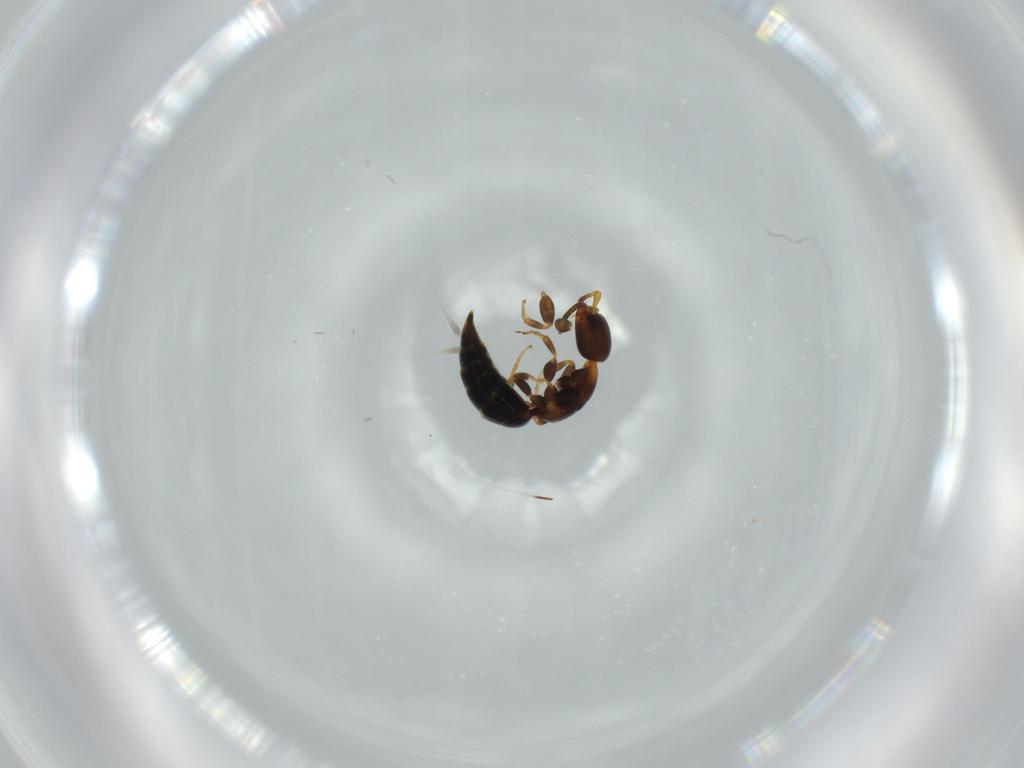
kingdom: Animalia
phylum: Arthropoda
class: Insecta
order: Hymenoptera
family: Bethylidae
